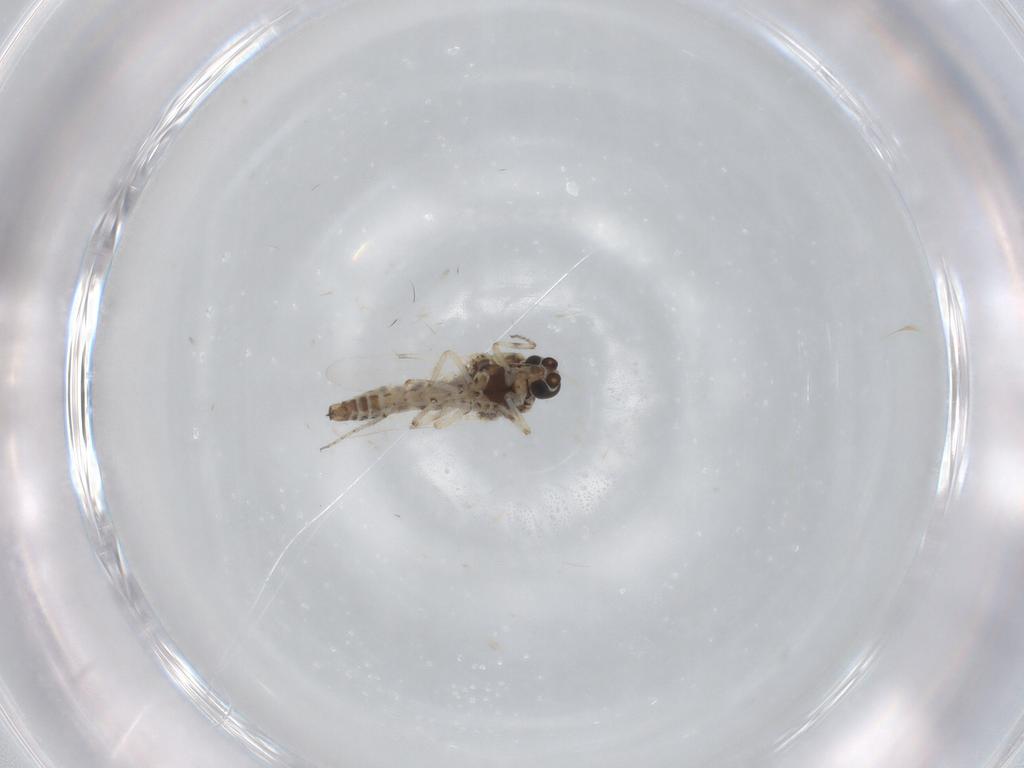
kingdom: Animalia
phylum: Arthropoda
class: Insecta
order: Diptera
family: Ceratopogonidae
